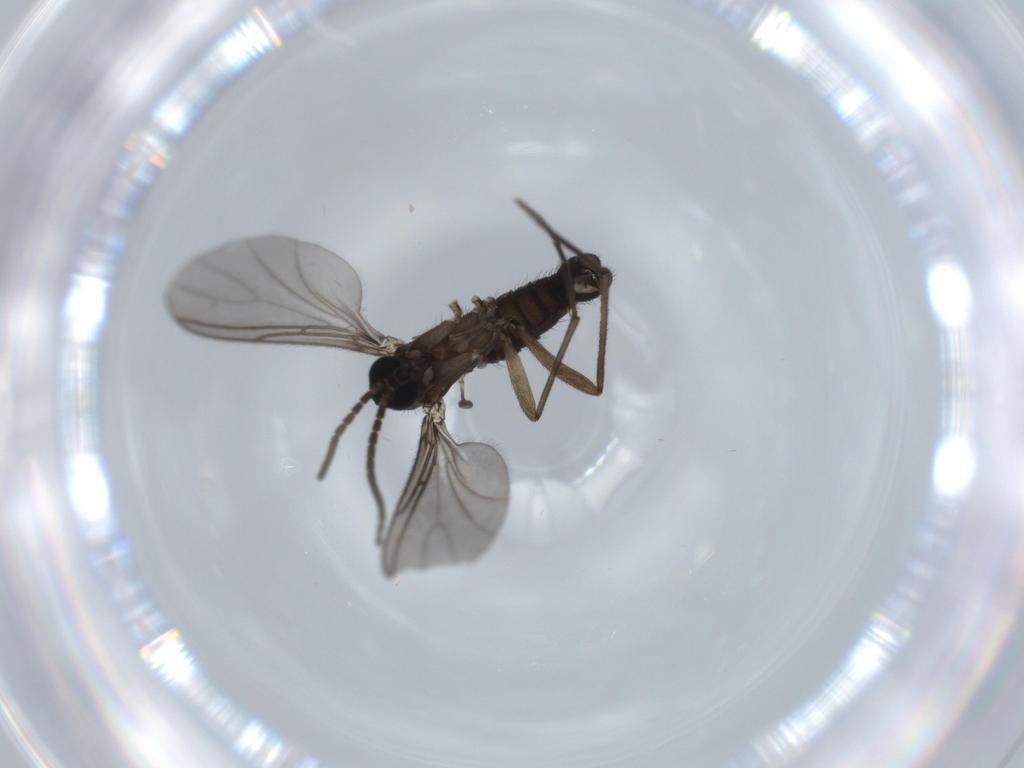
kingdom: Animalia
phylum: Arthropoda
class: Insecta
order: Diptera
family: Sciaridae
